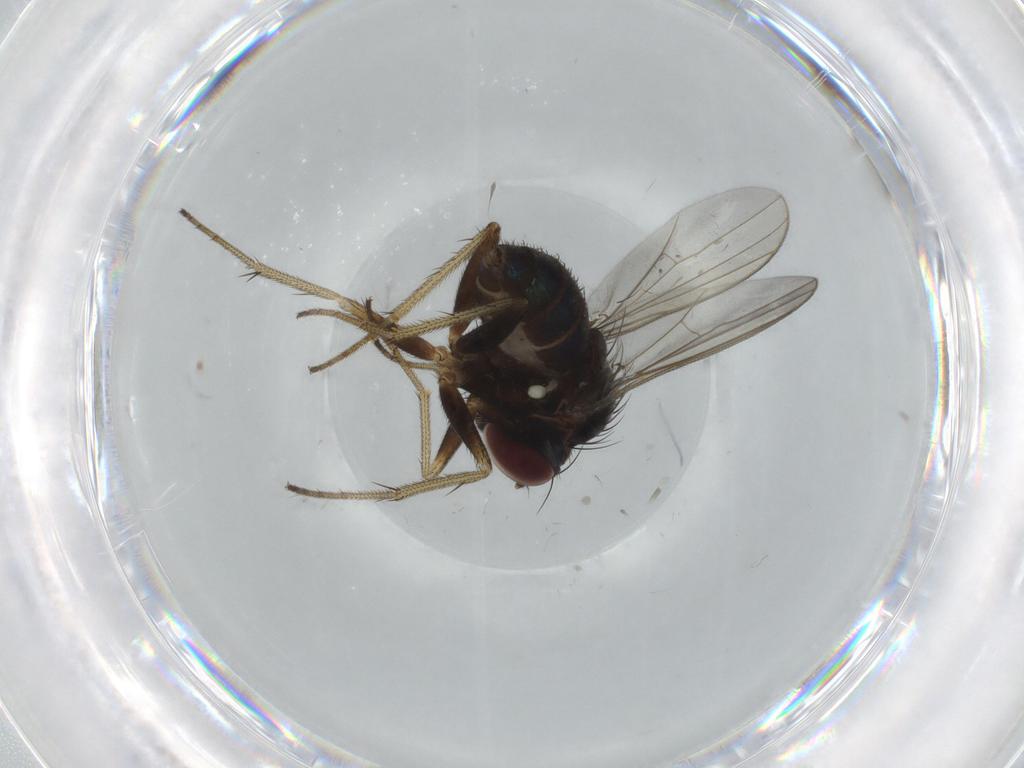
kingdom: Animalia
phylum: Arthropoda
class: Insecta
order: Diptera
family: Dolichopodidae
